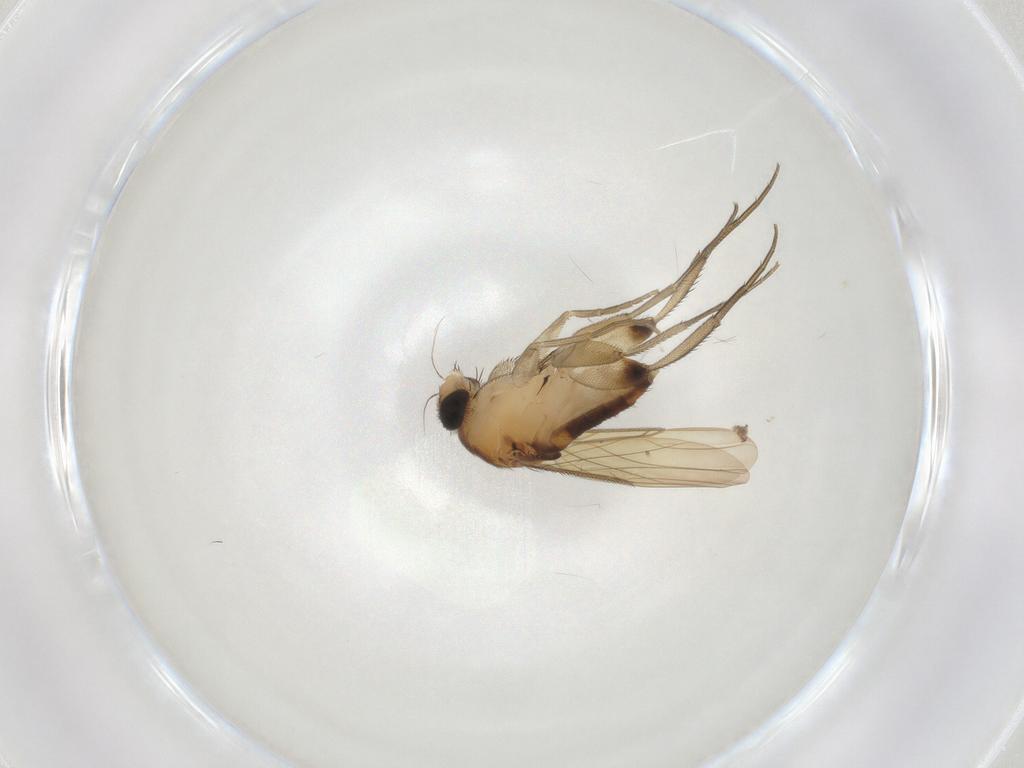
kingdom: Animalia
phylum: Arthropoda
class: Insecta
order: Diptera
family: Phoridae
